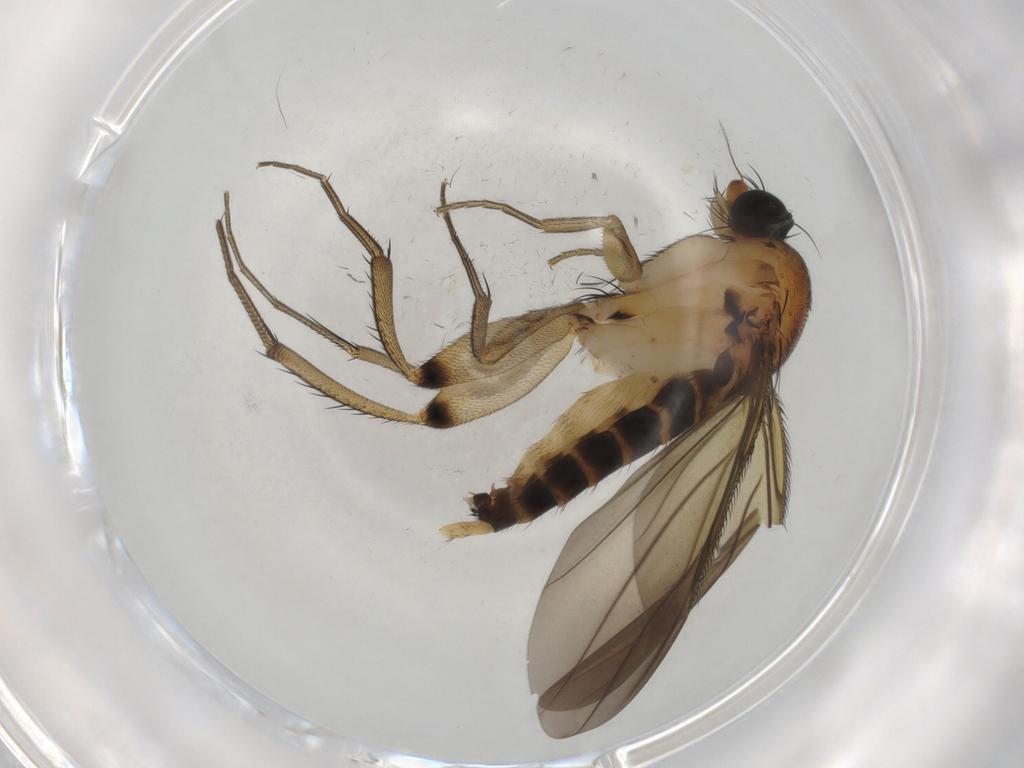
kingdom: Animalia
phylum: Arthropoda
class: Insecta
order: Diptera
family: Phoridae
